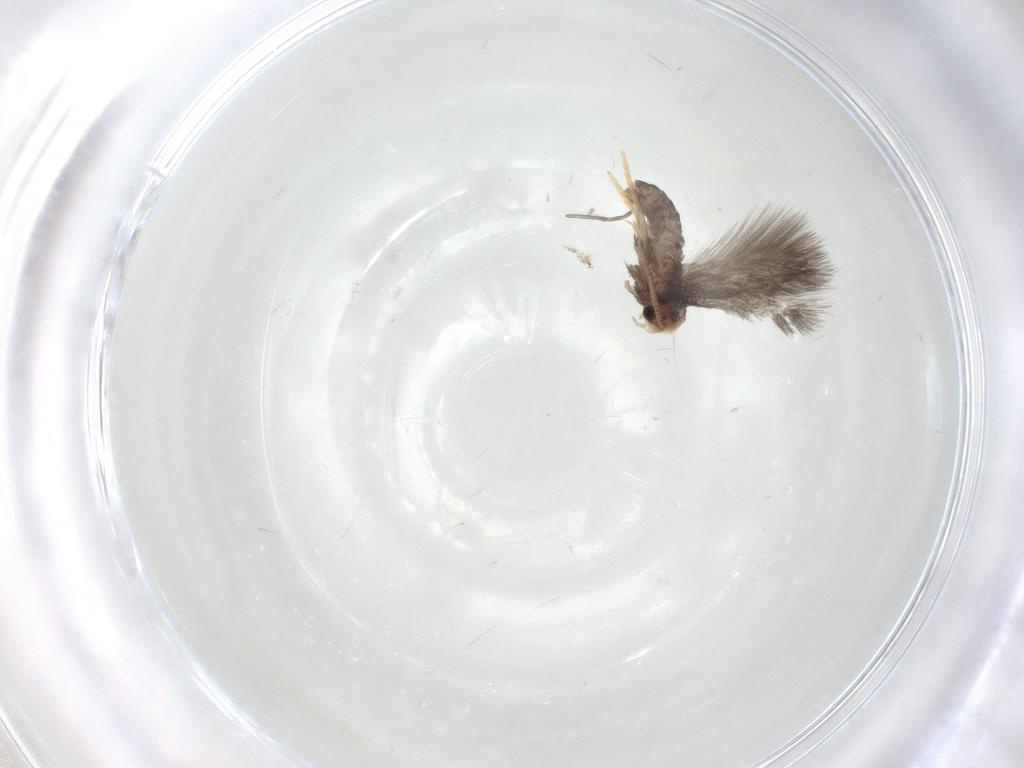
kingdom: Animalia
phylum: Arthropoda
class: Insecta
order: Lepidoptera
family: Nepticulidae
